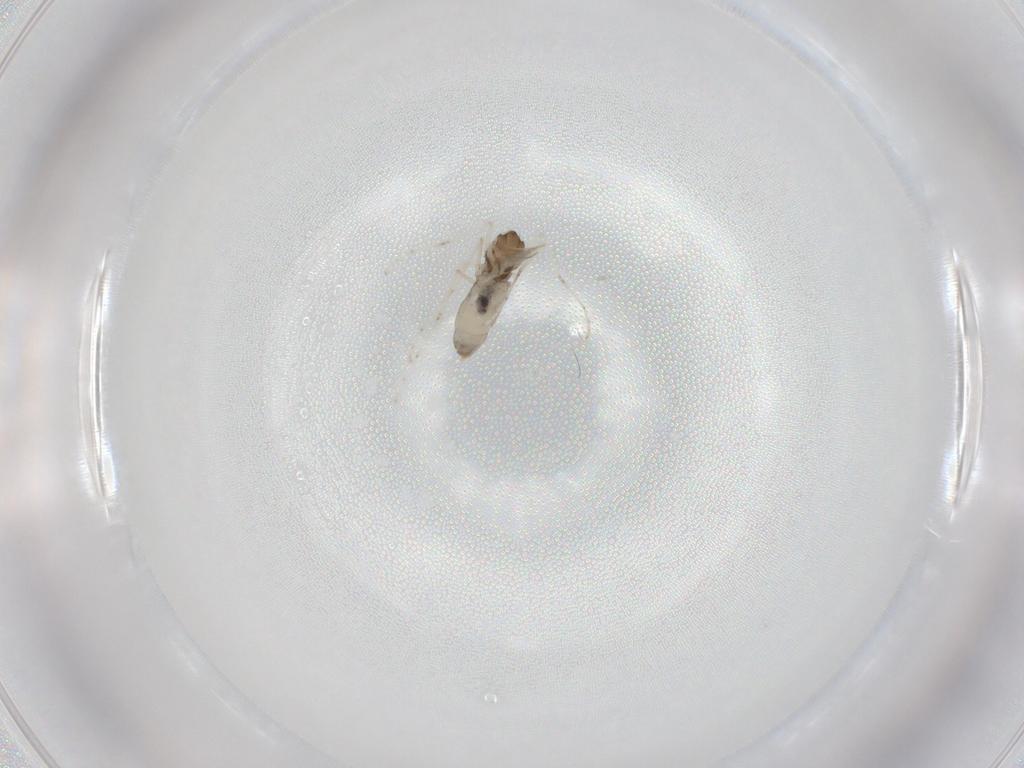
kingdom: Animalia
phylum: Arthropoda
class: Insecta
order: Diptera
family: Cecidomyiidae
